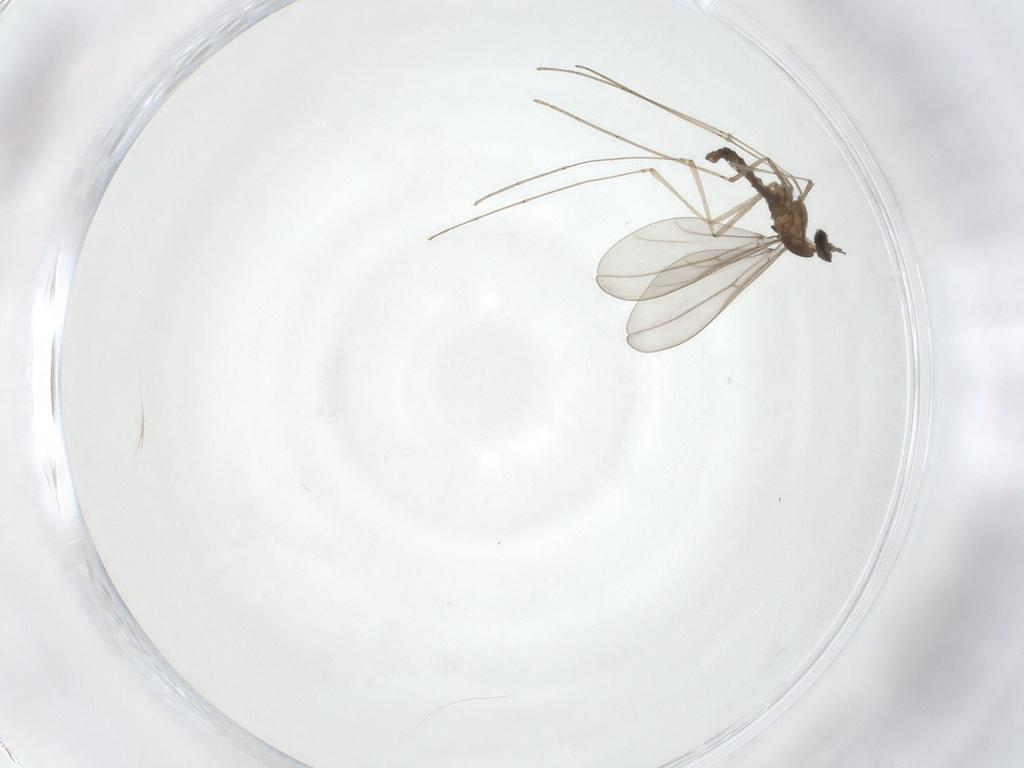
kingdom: Animalia
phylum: Arthropoda
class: Insecta
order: Diptera
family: Cecidomyiidae
